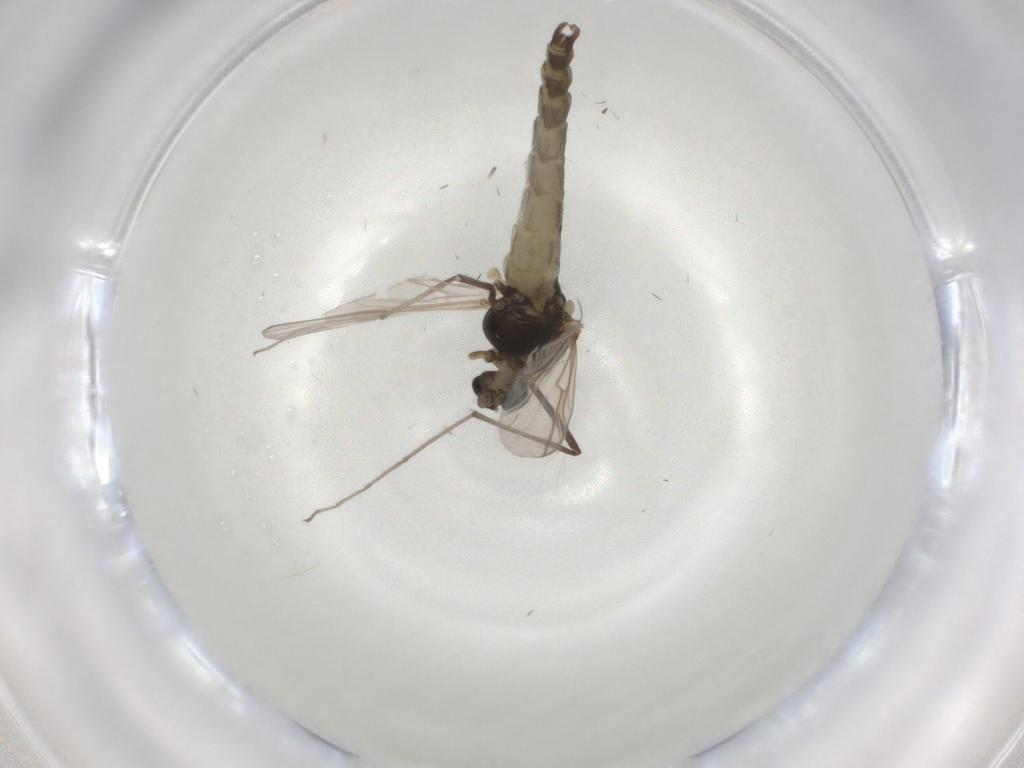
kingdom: Animalia
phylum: Arthropoda
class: Insecta
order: Diptera
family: Chironomidae
